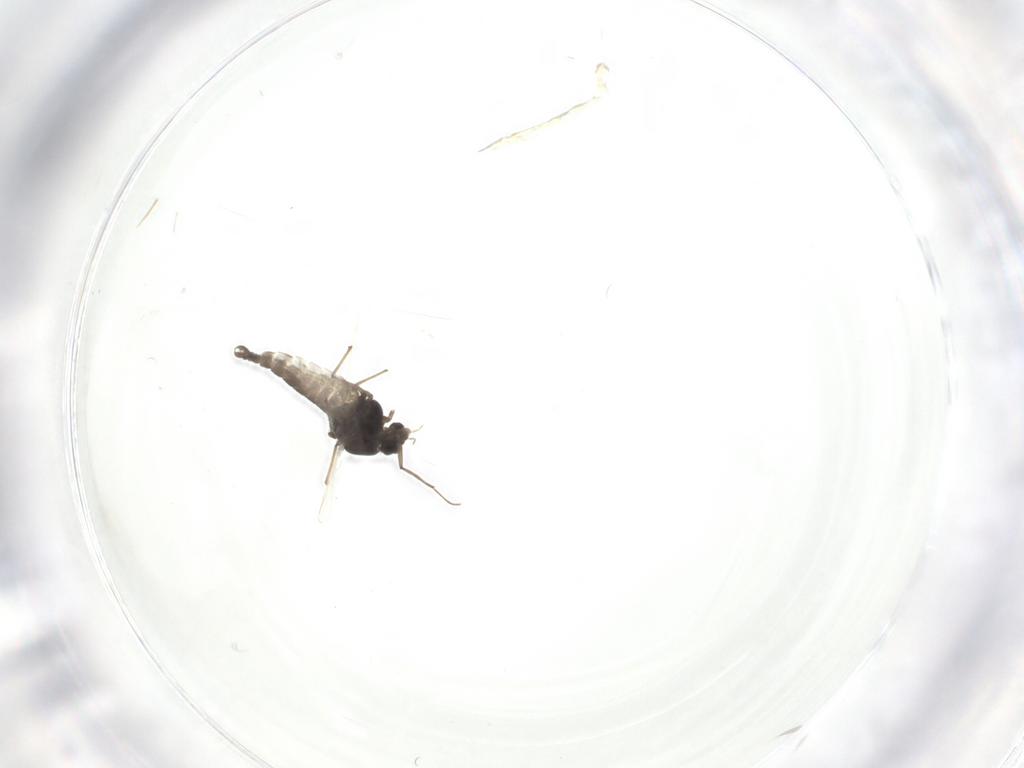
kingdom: Animalia
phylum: Arthropoda
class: Insecta
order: Diptera
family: Chironomidae
